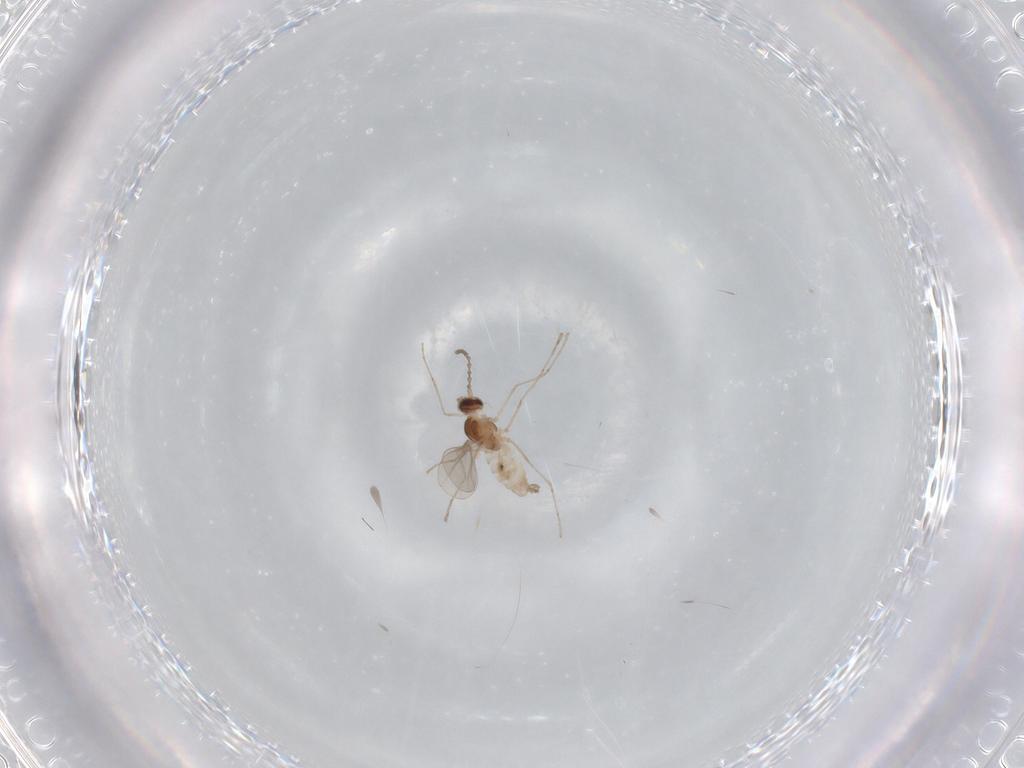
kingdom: Animalia
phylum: Arthropoda
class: Insecta
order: Diptera
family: Cecidomyiidae
